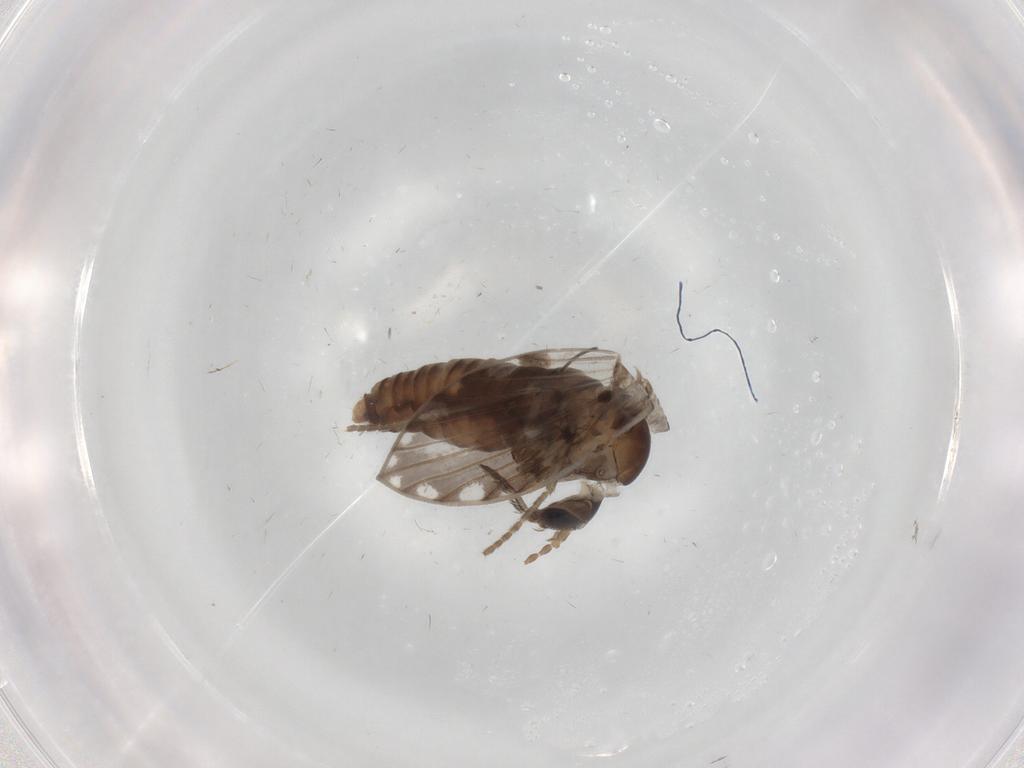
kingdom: Animalia
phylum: Arthropoda
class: Insecta
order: Diptera
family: Psychodidae
